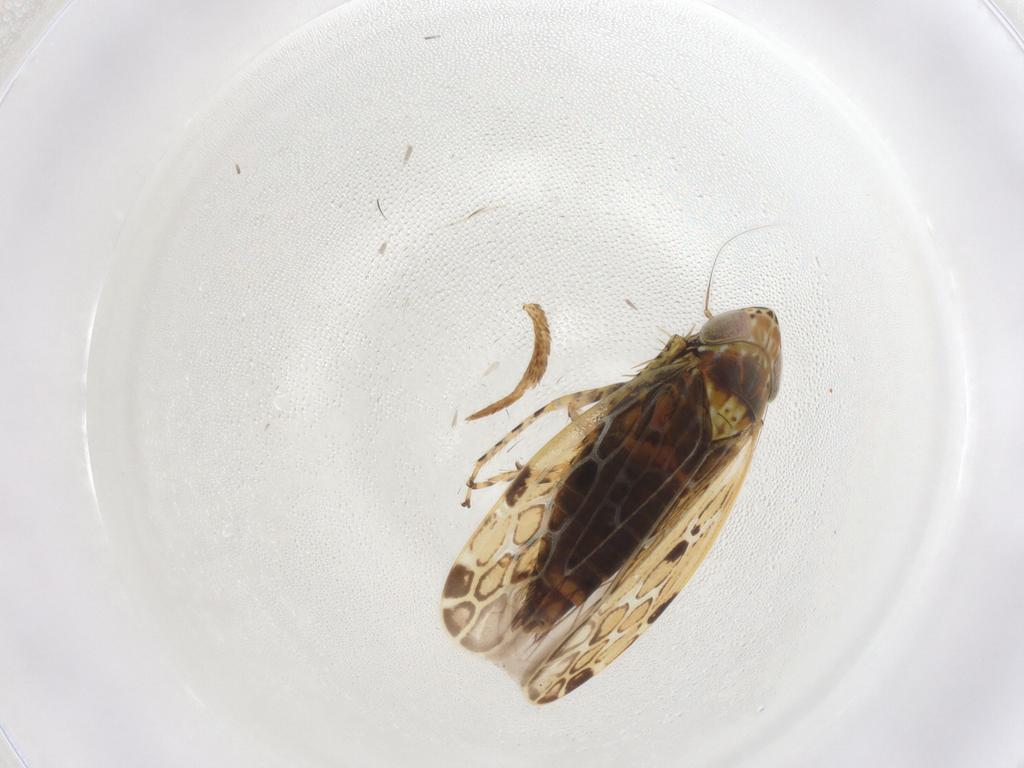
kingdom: Animalia
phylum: Arthropoda
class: Insecta
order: Hemiptera
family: Cicadellidae
